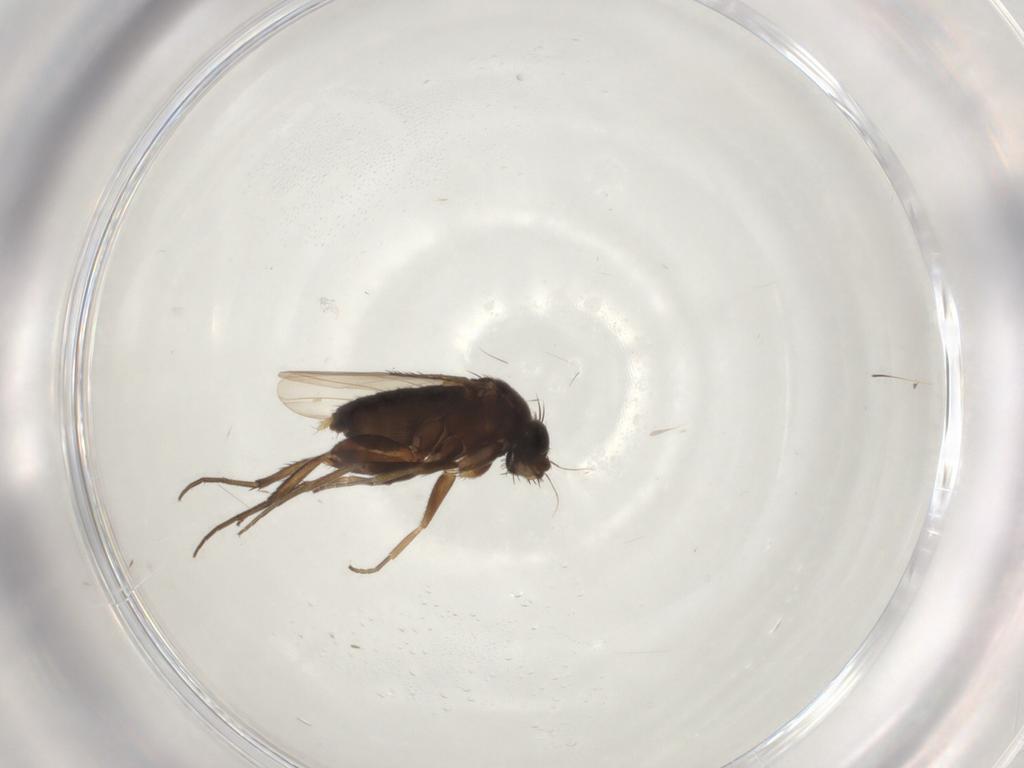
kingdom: Animalia
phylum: Arthropoda
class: Insecta
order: Diptera
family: Phoridae
